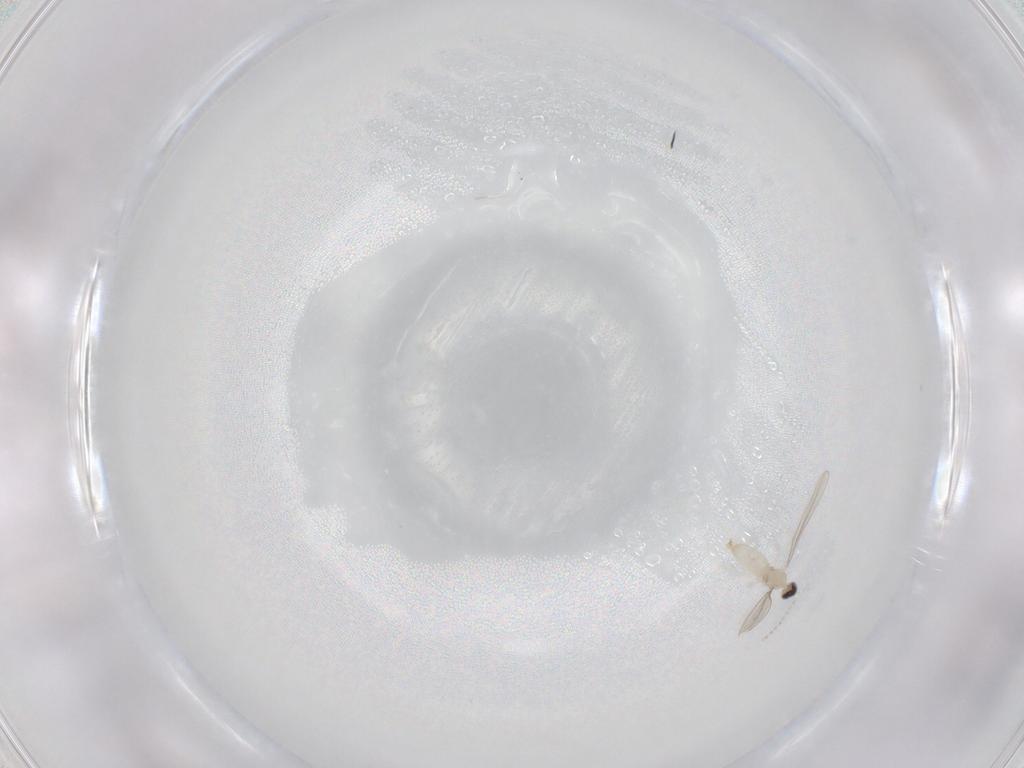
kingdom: Animalia
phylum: Arthropoda
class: Insecta
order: Diptera
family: Psychodidae
